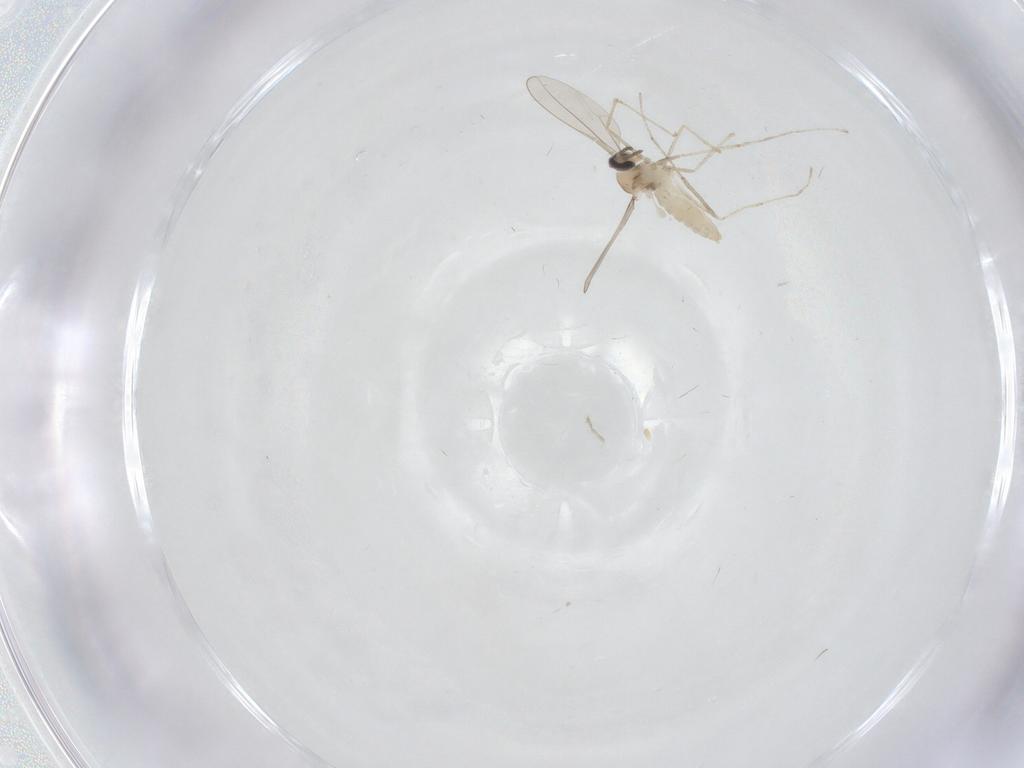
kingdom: Animalia
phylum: Arthropoda
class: Insecta
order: Diptera
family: Cecidomyiidae
